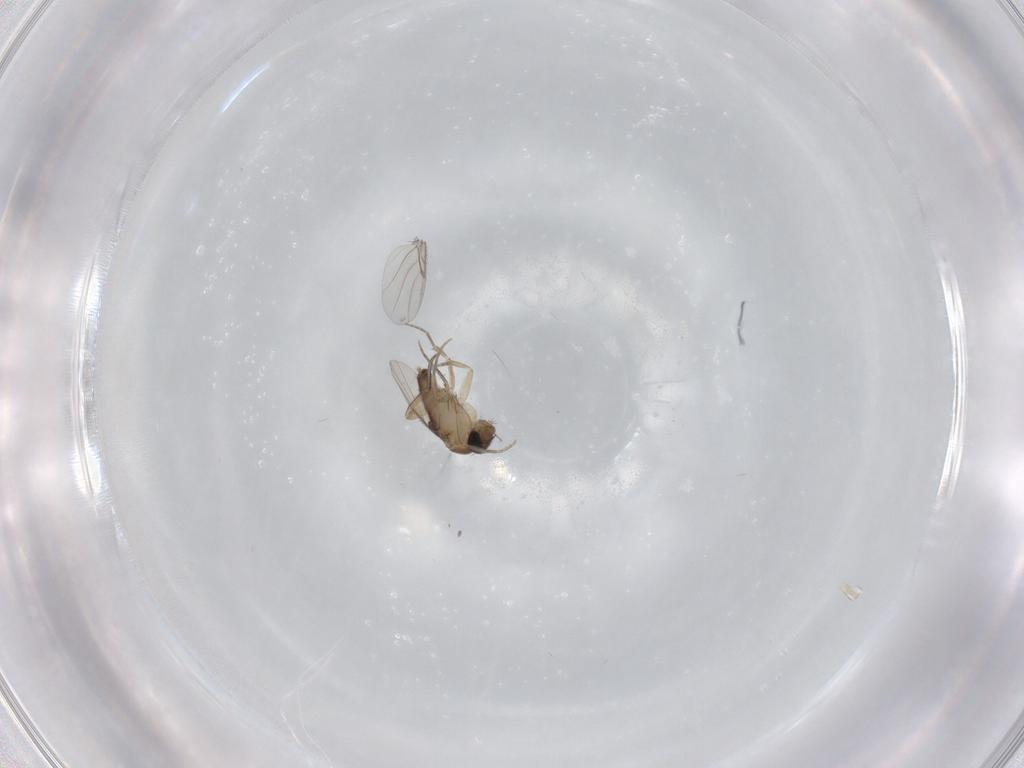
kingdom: Animalia
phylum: Arthropoda
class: Insecta
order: Diptera
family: Phoridae
